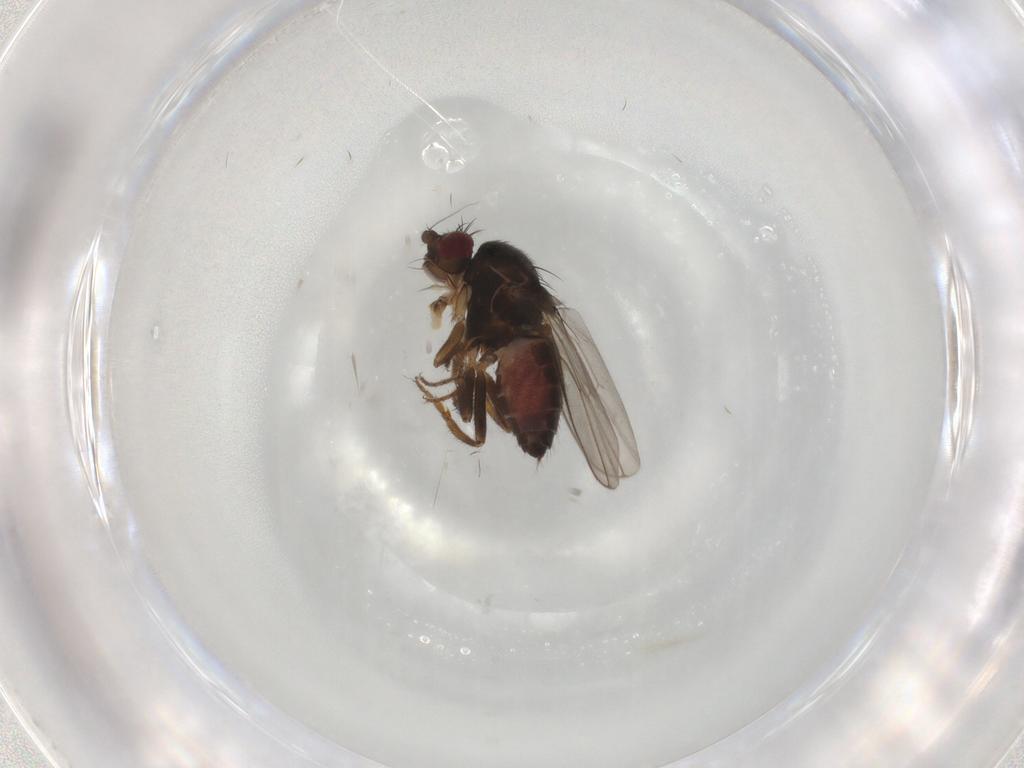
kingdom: Animalia
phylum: Arthropoda
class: Insecta
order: Diptera
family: Sphaeroceridae
